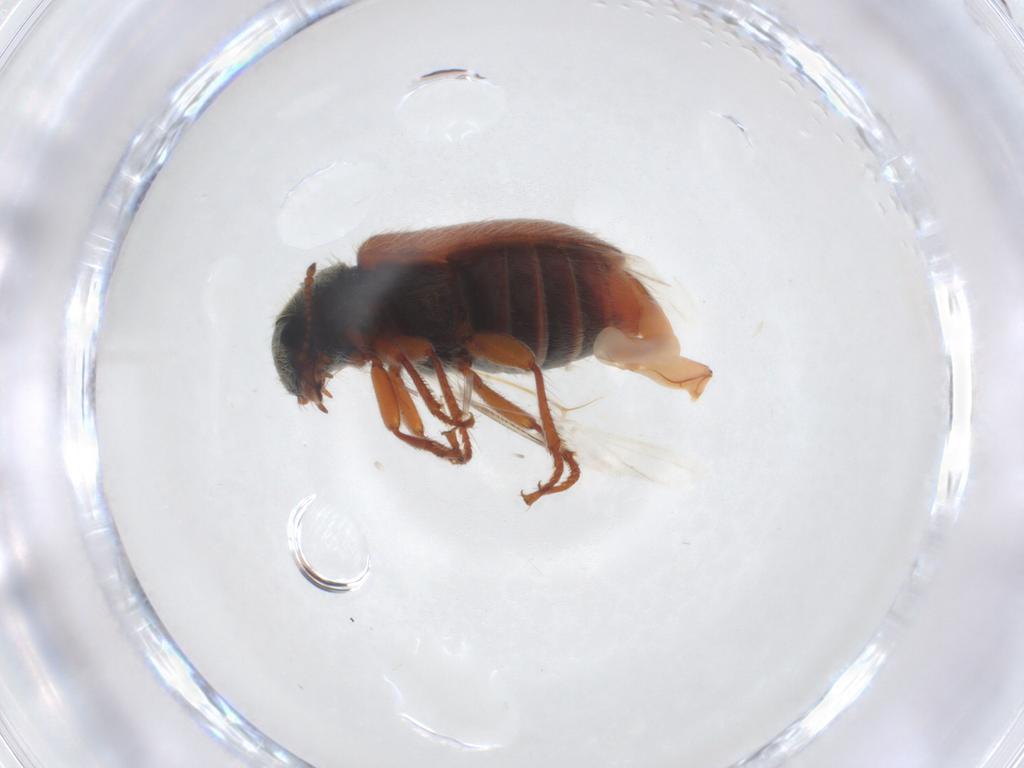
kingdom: Animalia
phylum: Arthropoda
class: Insecta
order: Coleoptera
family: Melyridae
